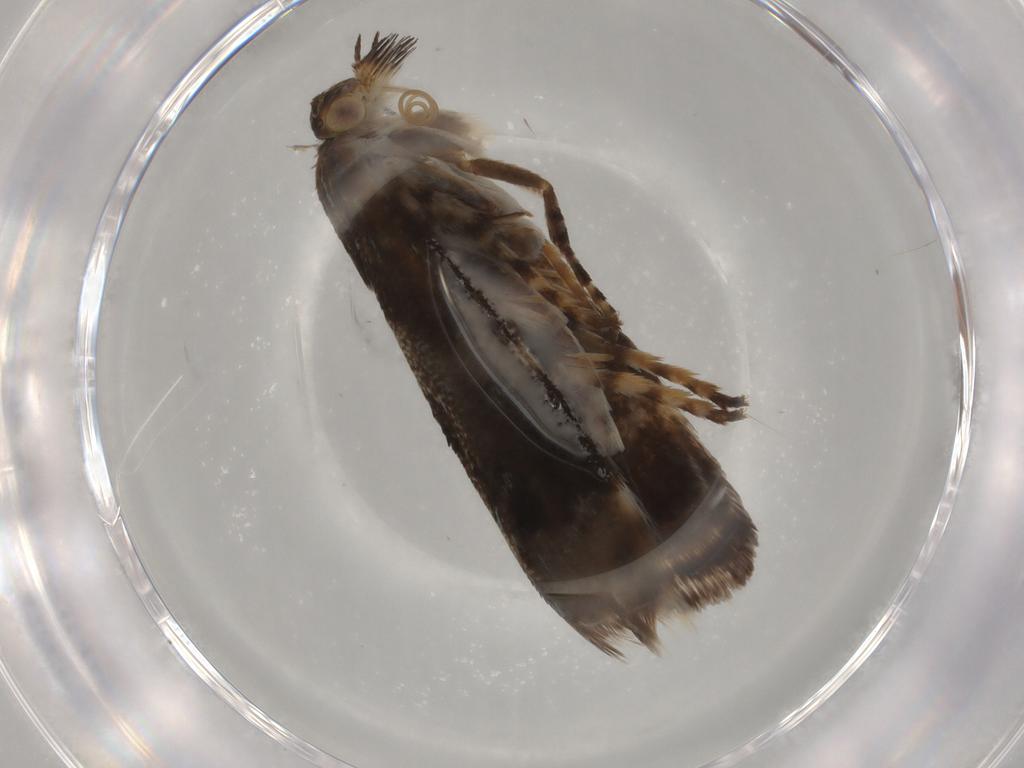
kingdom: Animalia
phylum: Arthropoda
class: Insecta
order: Lepidoptera
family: Choreutidae
